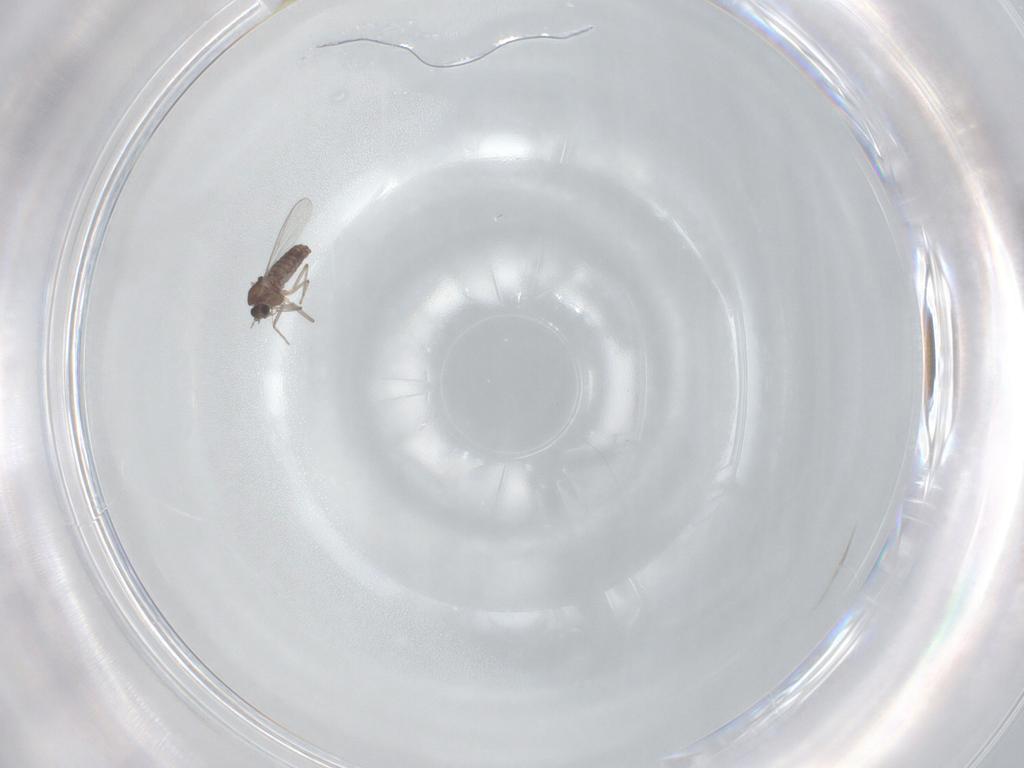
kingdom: Animalia
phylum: Arthropoda
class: Insecta
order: Diptera
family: Chironomidae
